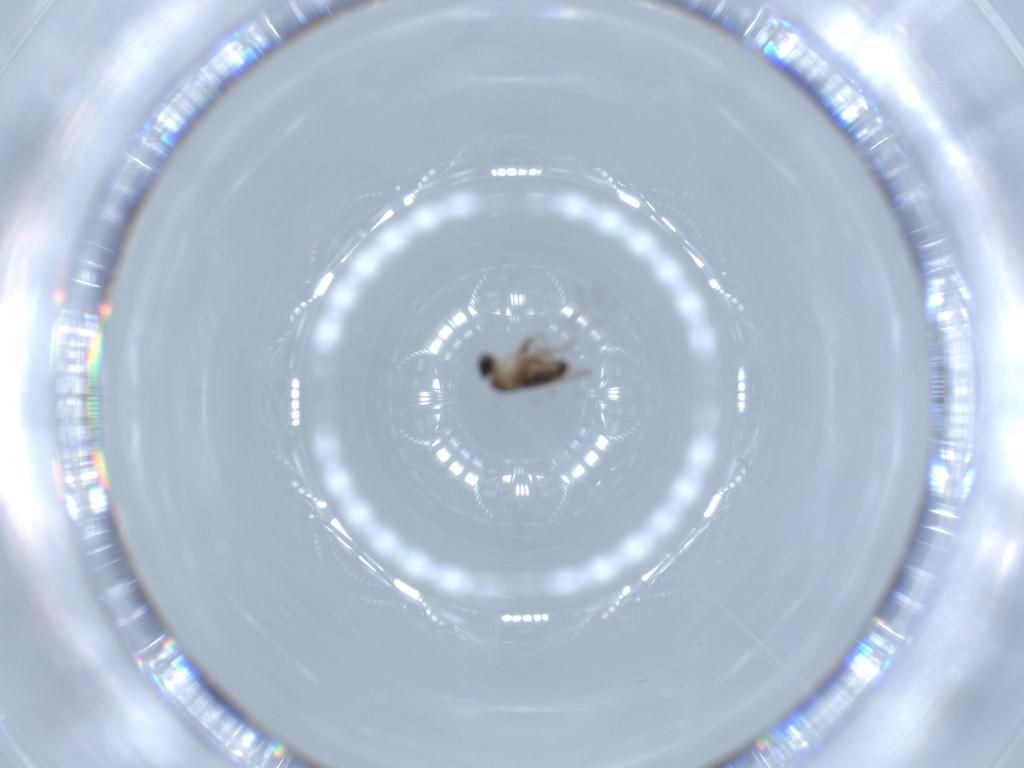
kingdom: Animalia
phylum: Arthropoda
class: Insecta
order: Diptera
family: Phoridae
